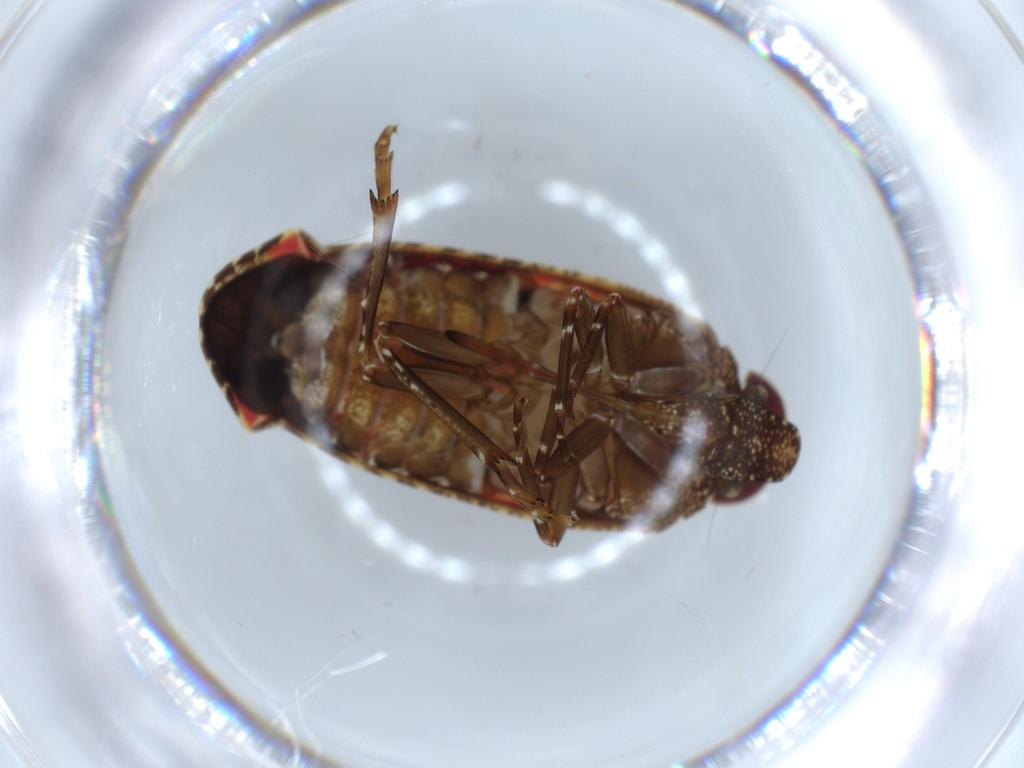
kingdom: Animalia
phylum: Arthropoda
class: Insecta
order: Hemiptera
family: Achilidae
